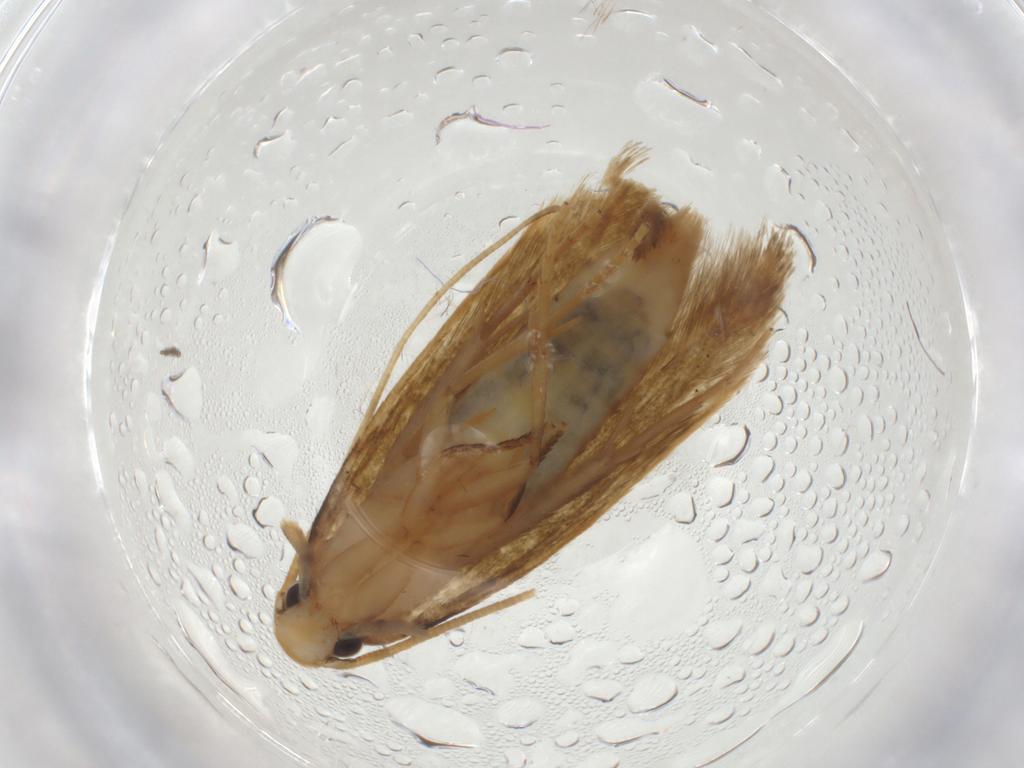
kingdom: Animalia
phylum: Arthropoda
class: Insecta
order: Lepidoptera
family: Tineidae
